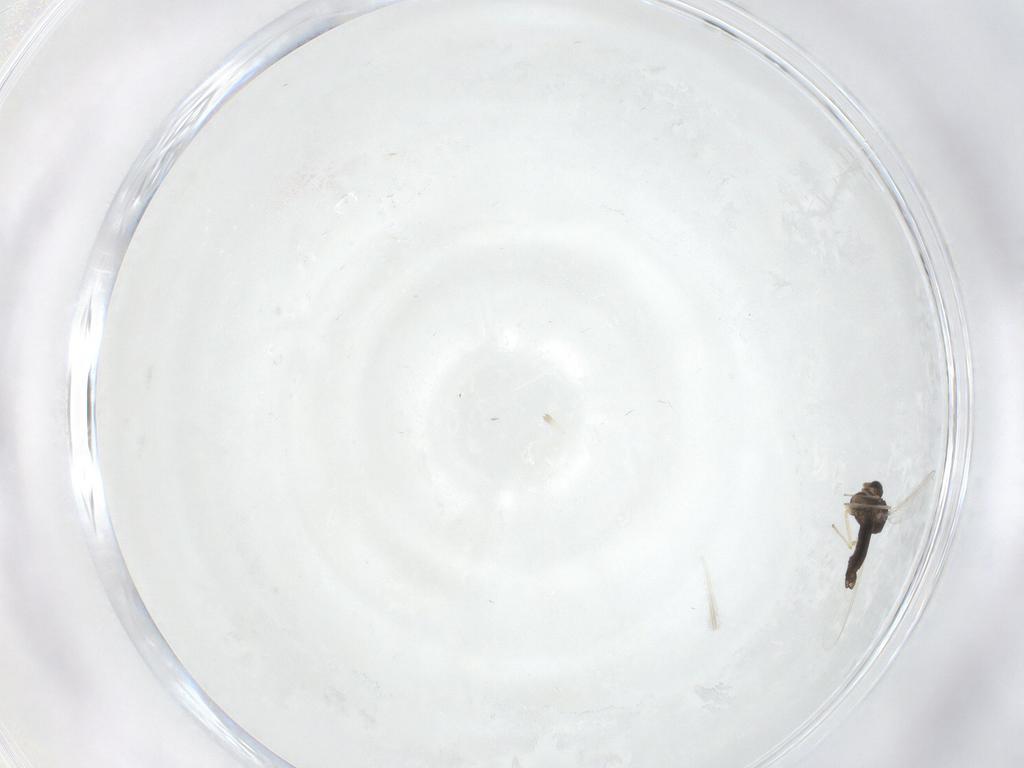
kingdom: Animalia
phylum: Arthropoda
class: Insecta
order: Diptera
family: Chironomidae
